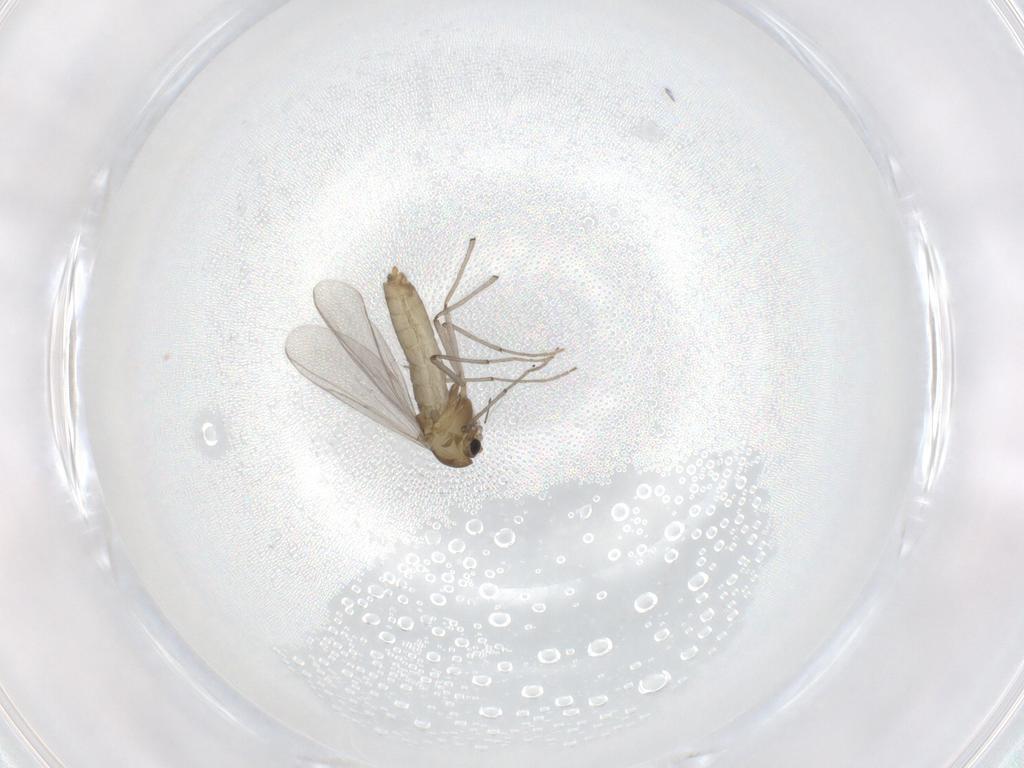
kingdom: Animalia
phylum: Arthropoda
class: Insecta
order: Diptera
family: Chironomidae
